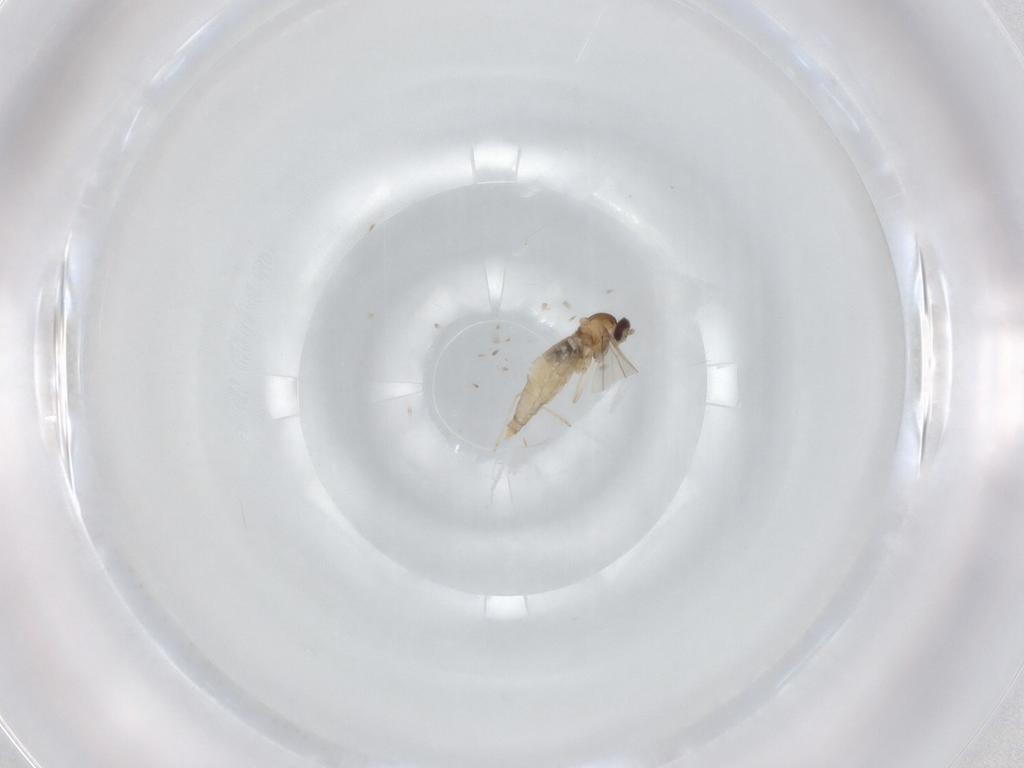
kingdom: Animalia
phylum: Arthropoda
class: Insecta
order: Diptera
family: Cecidomyiidae
